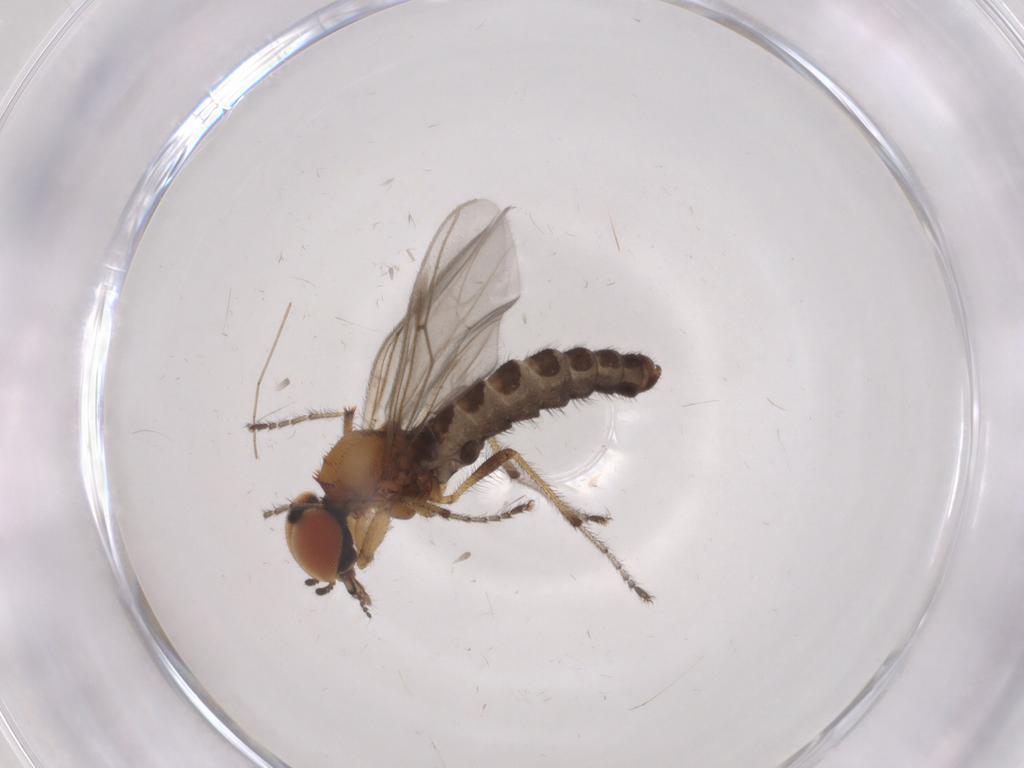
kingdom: Animalia
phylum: Arthropoda
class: Insecta
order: Diptera
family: Bibionidae
